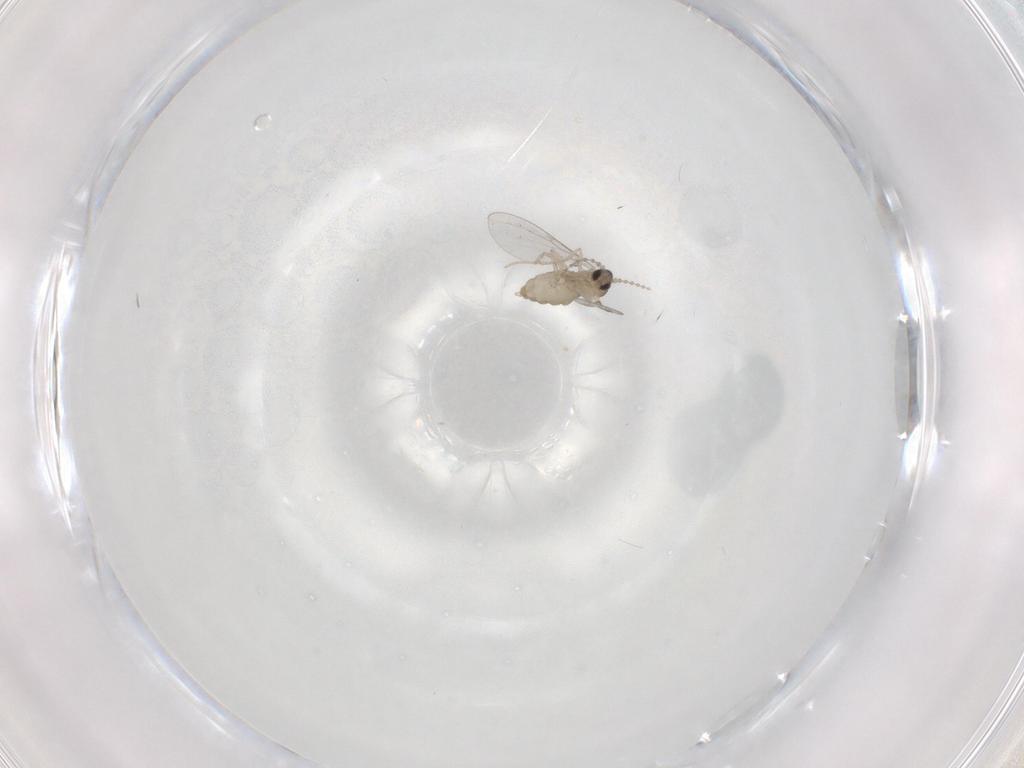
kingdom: Animalia
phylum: Arthropoda
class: Insecta
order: Diptera
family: Cecidomyiidae
